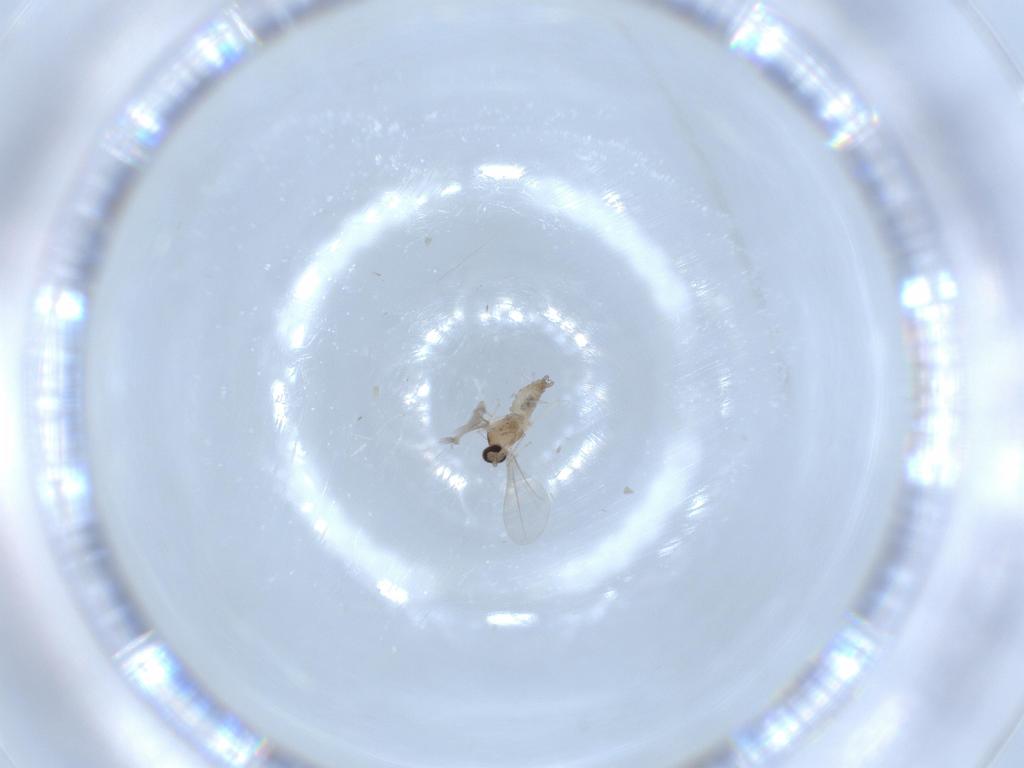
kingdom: Animalia
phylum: Arthropoda
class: Insecta
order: Diptera
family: Cecidomyiidae
